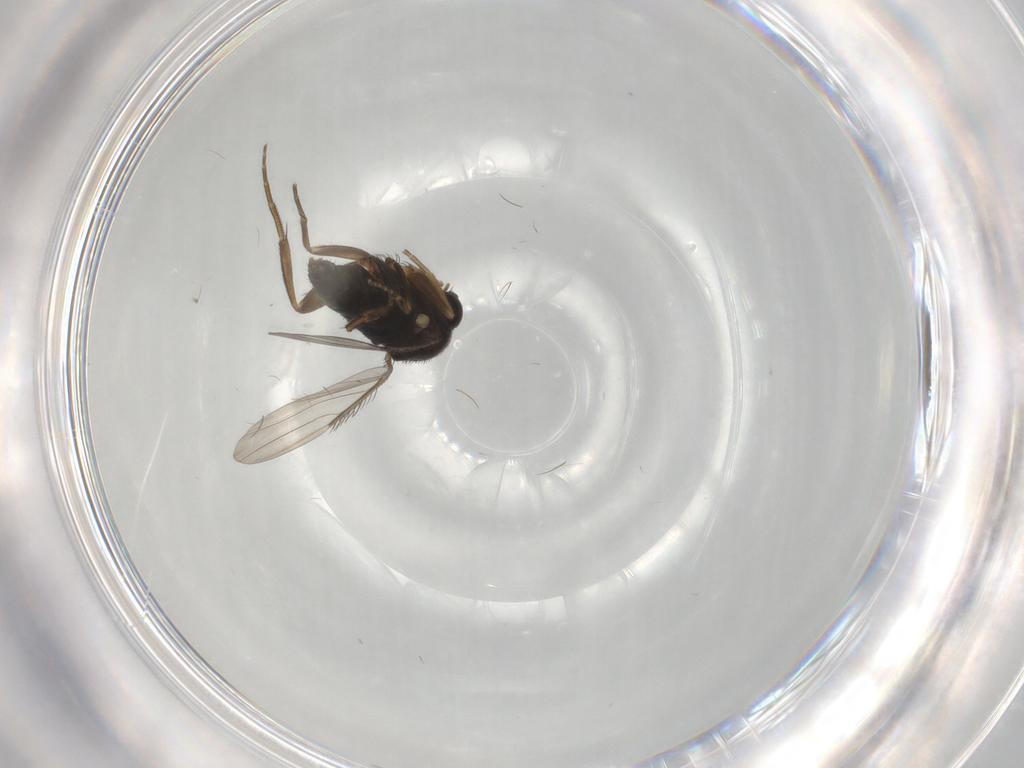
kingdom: Animalia
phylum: Arthropoda
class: Insecta
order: Diptera
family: Phoridae
